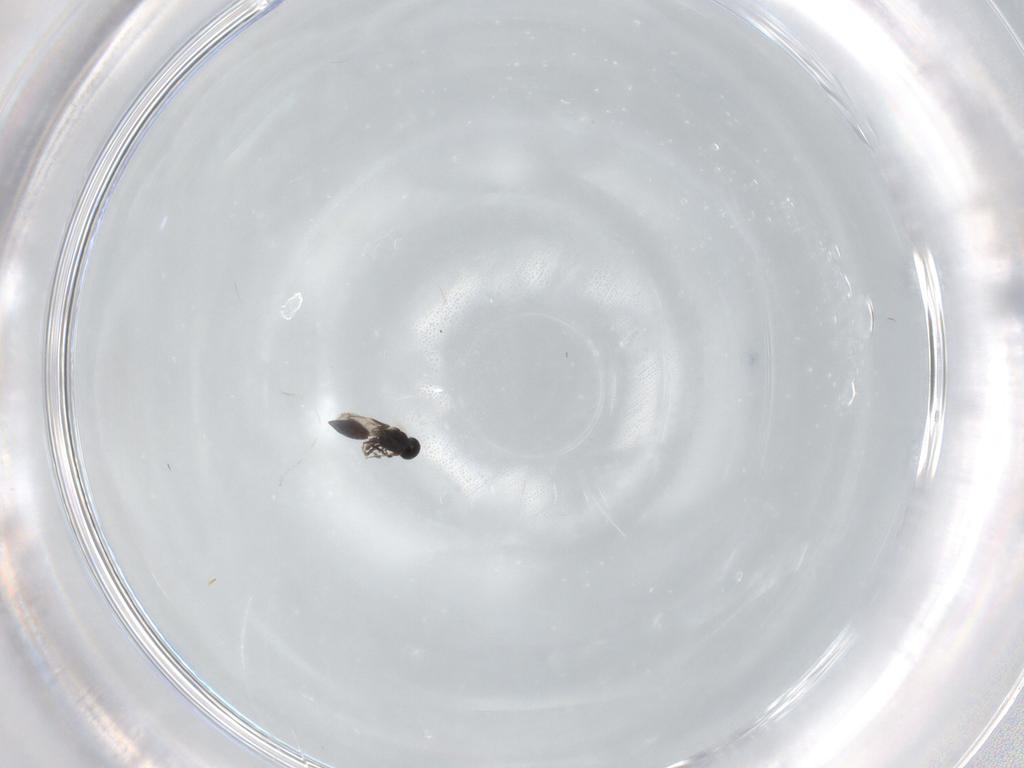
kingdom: Animalia
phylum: Arthropoda
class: Insecta
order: Hymenoptera
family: Scelionidae
